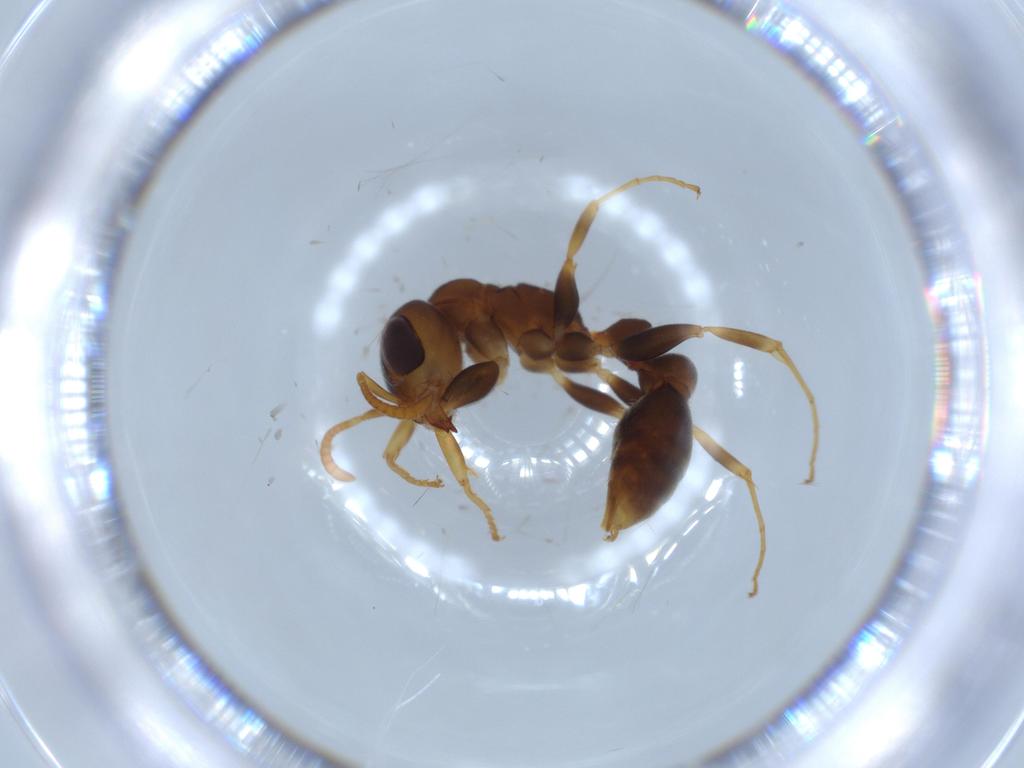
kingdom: Animalia
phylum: Arthropoda
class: Insecta
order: Hymenoptera
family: Formicidae
